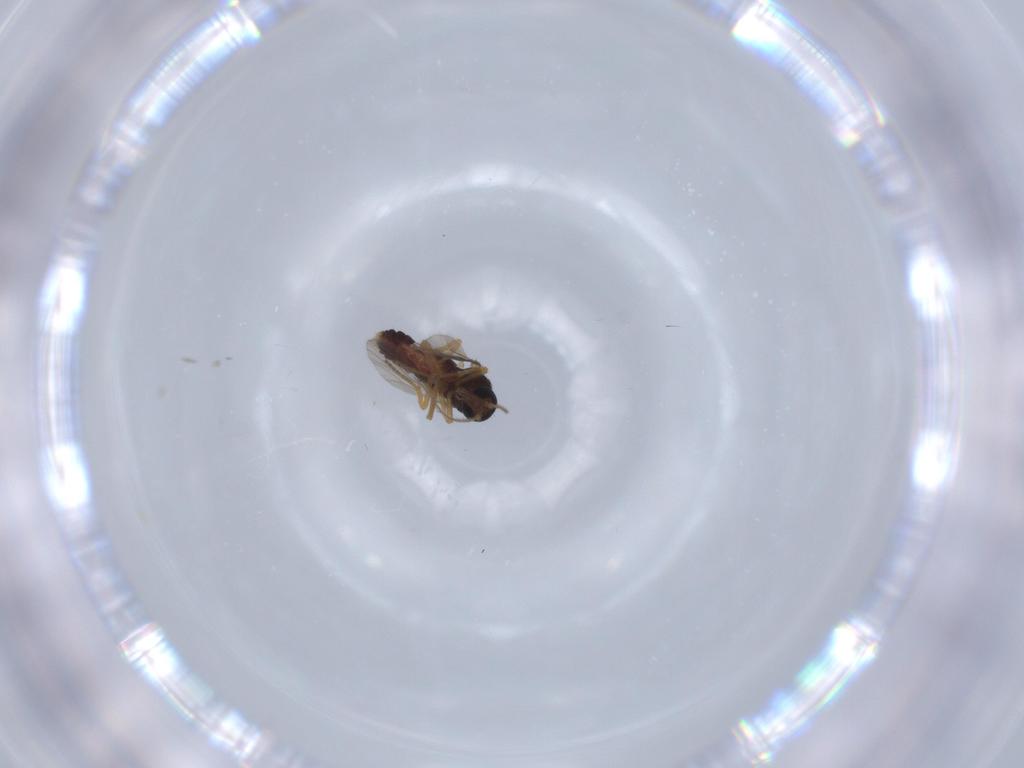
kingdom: Animalia
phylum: Arthropoda
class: Insecta
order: Diptera
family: Ceratopogonidae
